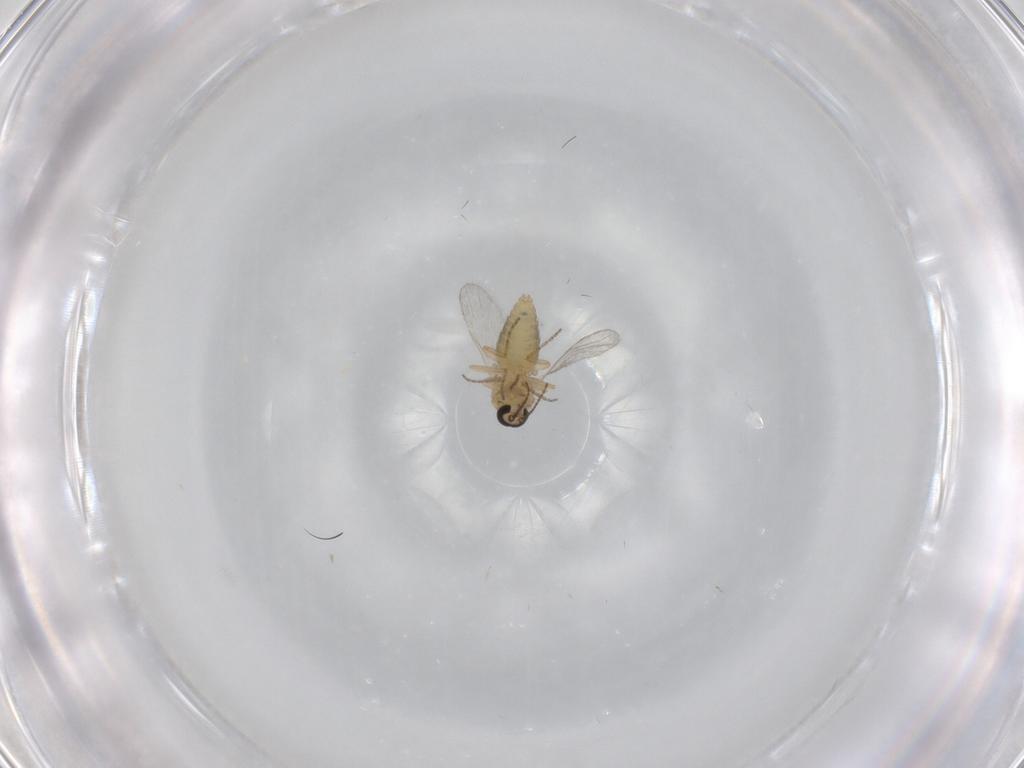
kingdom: Animalia
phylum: Arthropoda
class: Insecta
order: Diptera
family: Ceratopogonidae
